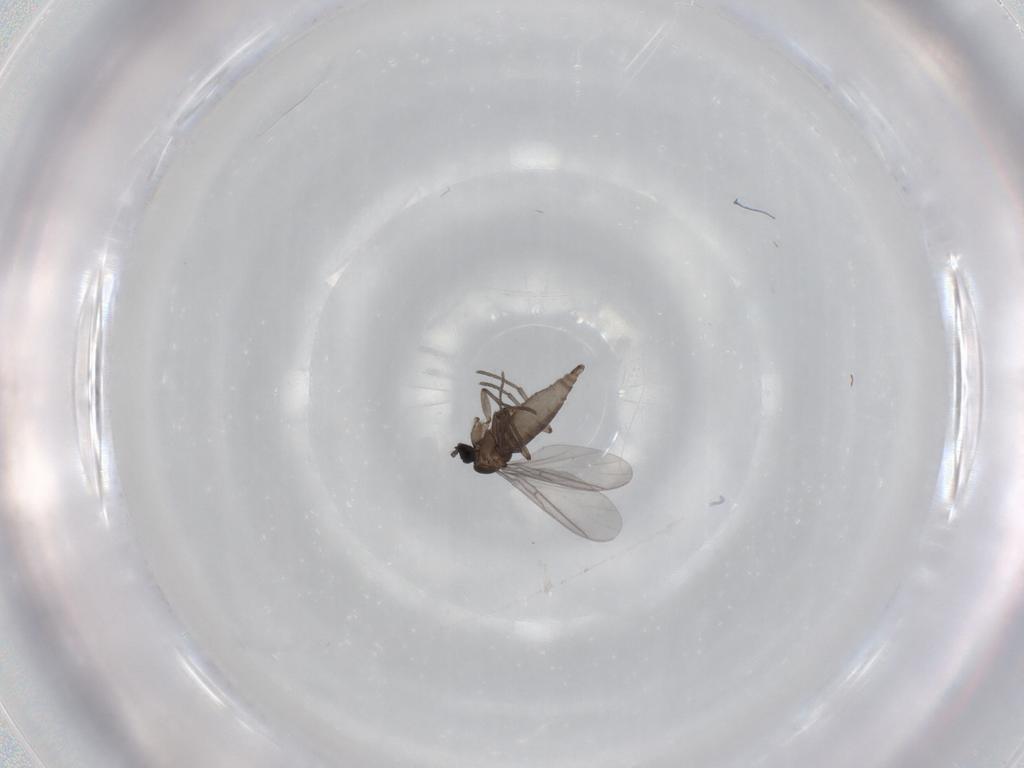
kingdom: Animalia
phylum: Arthropoda
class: Insecta
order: Diptera
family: Sciaridae
